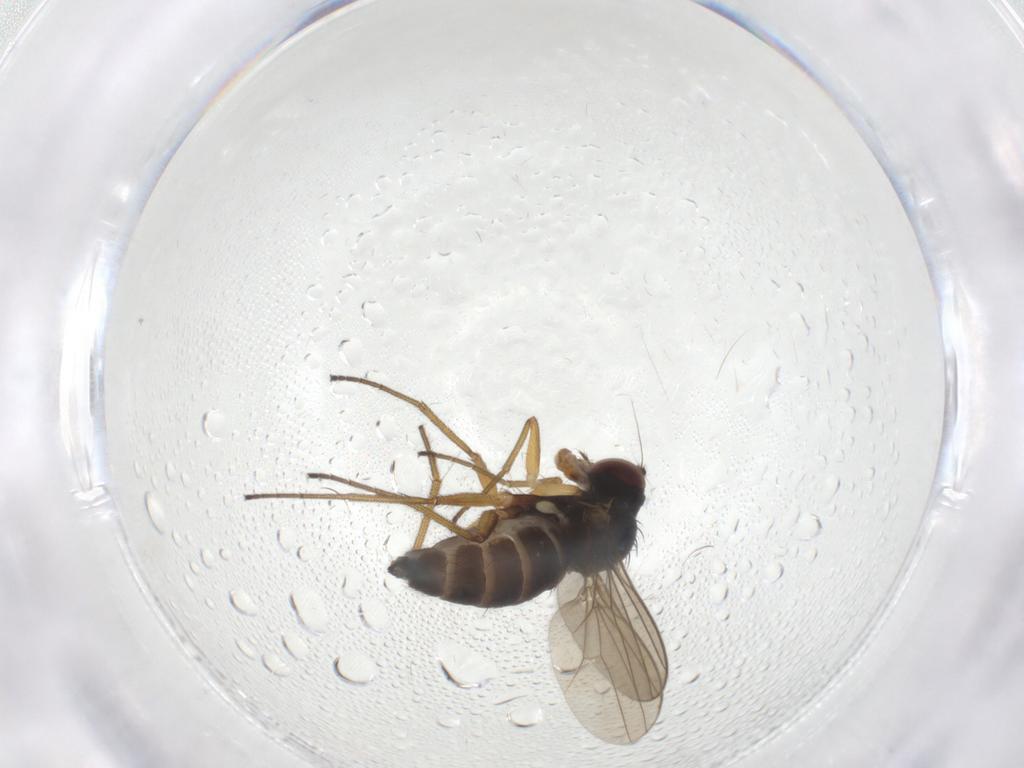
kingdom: Animalia
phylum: Arthropoda
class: Insecta
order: Diptera
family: Dolichopodidae
